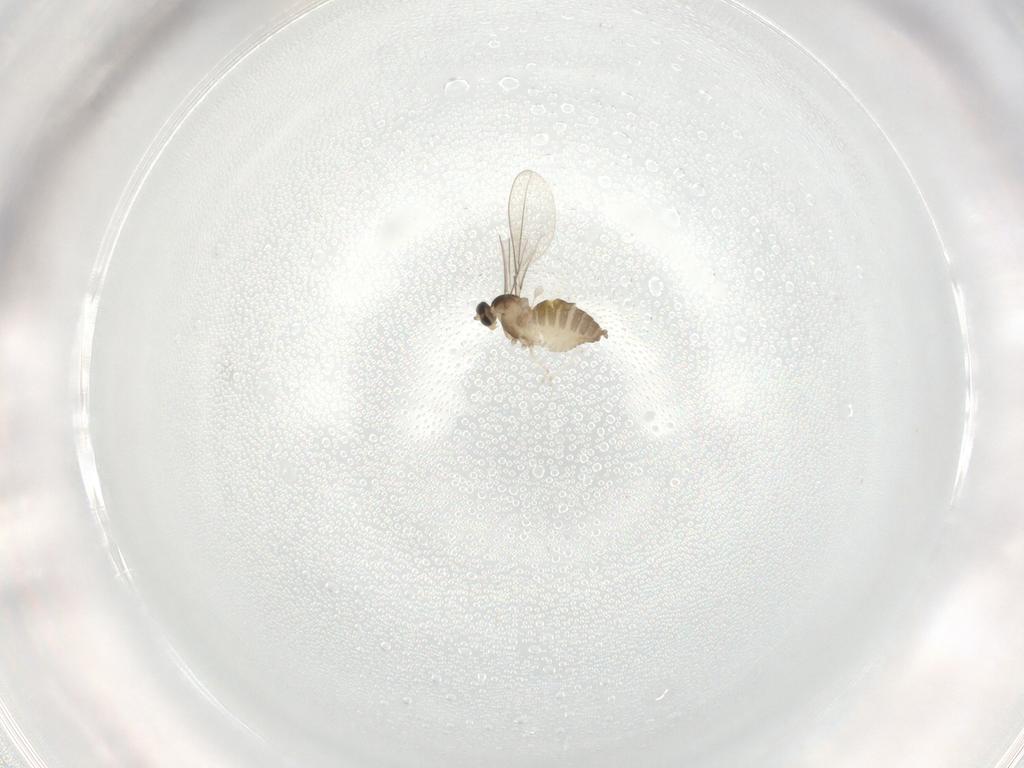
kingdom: Animalia
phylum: Arthropoda
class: Insecta
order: Diptera
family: Cecidomyiidae
